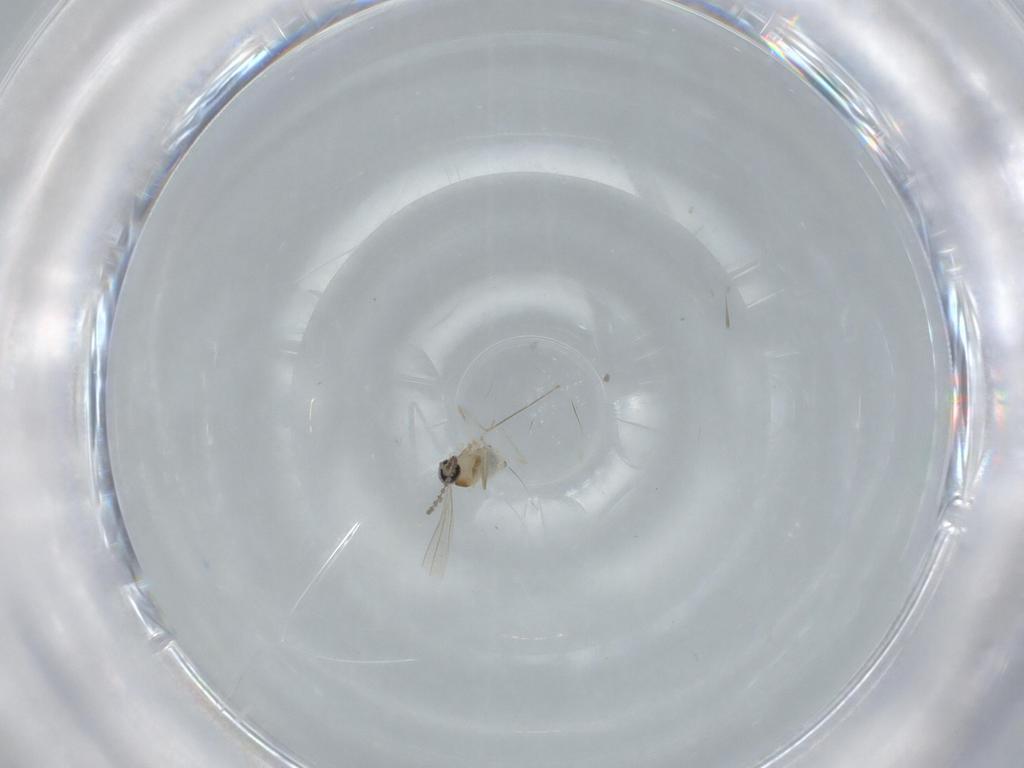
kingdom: Animalia
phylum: Arthropoda
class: Insecta
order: Diptera
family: Cecidomyiidae
